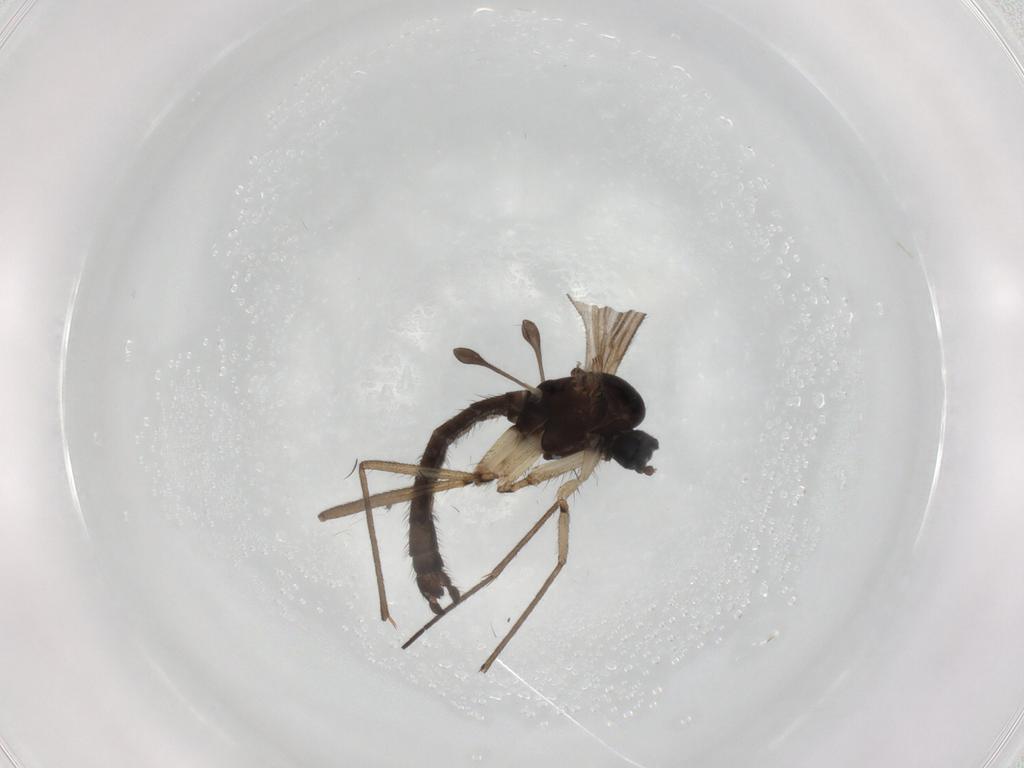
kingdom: Animalia
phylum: Arthropoda
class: Insecta
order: Diptera
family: Sciaridae
